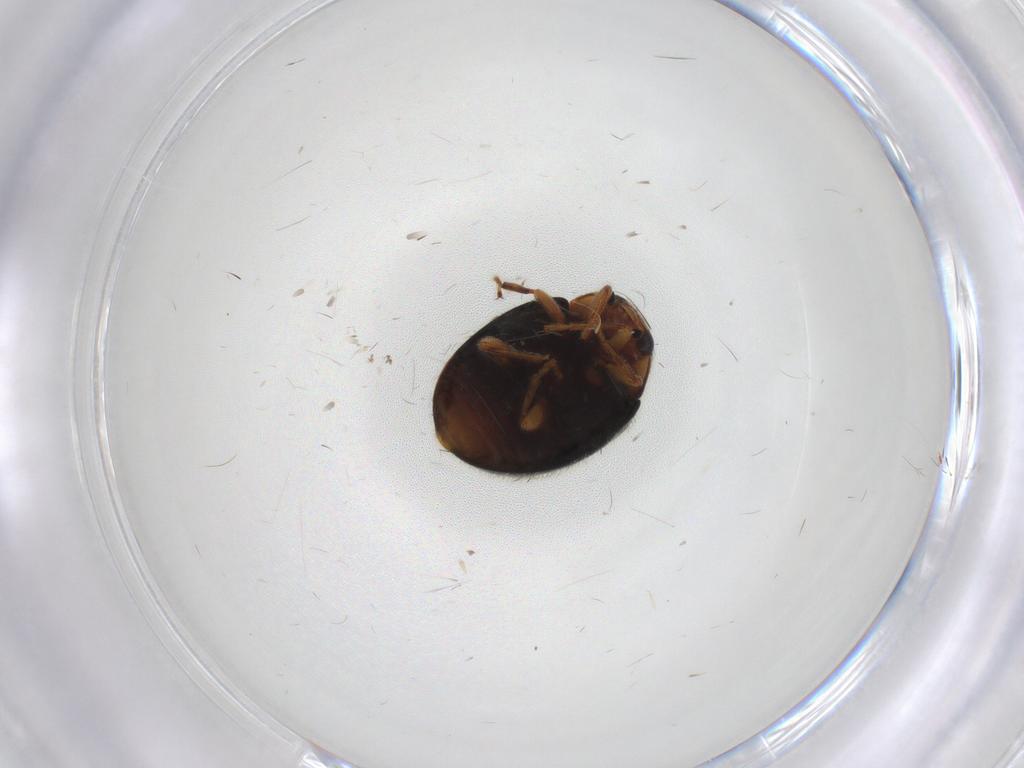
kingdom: Animalia
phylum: Arthropoda
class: Insecta
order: Coleoptera
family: Coccinellidae
